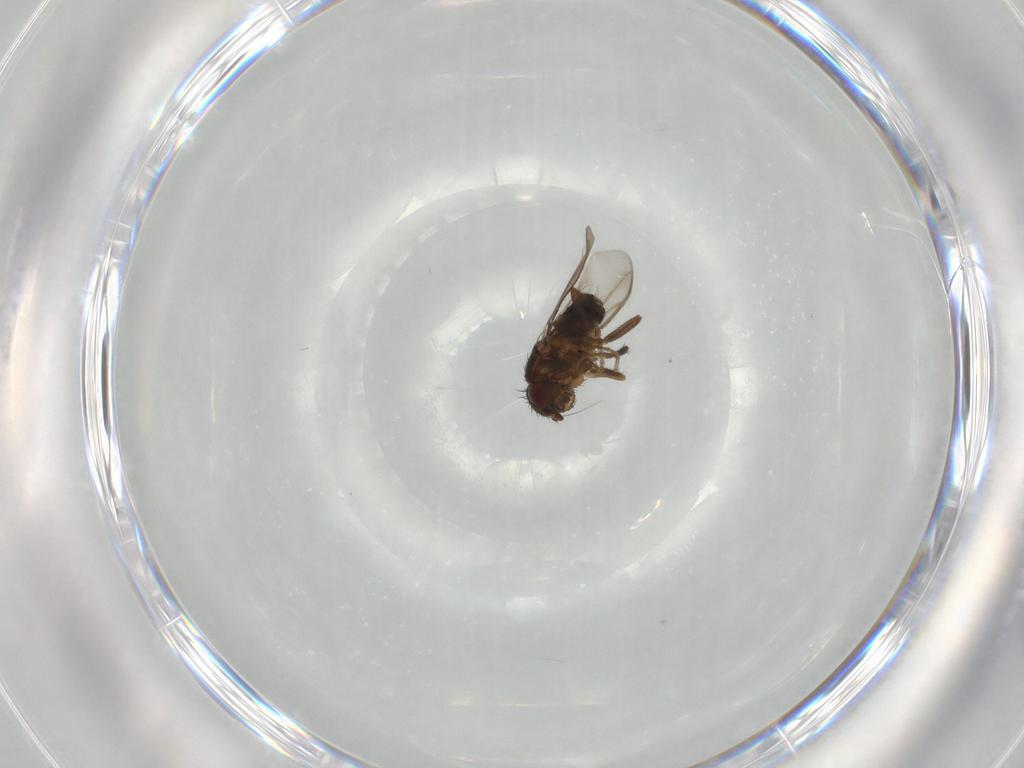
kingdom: Animalia
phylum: Arthropoda
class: Insecta
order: Diptera
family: Sphaeroceridae
